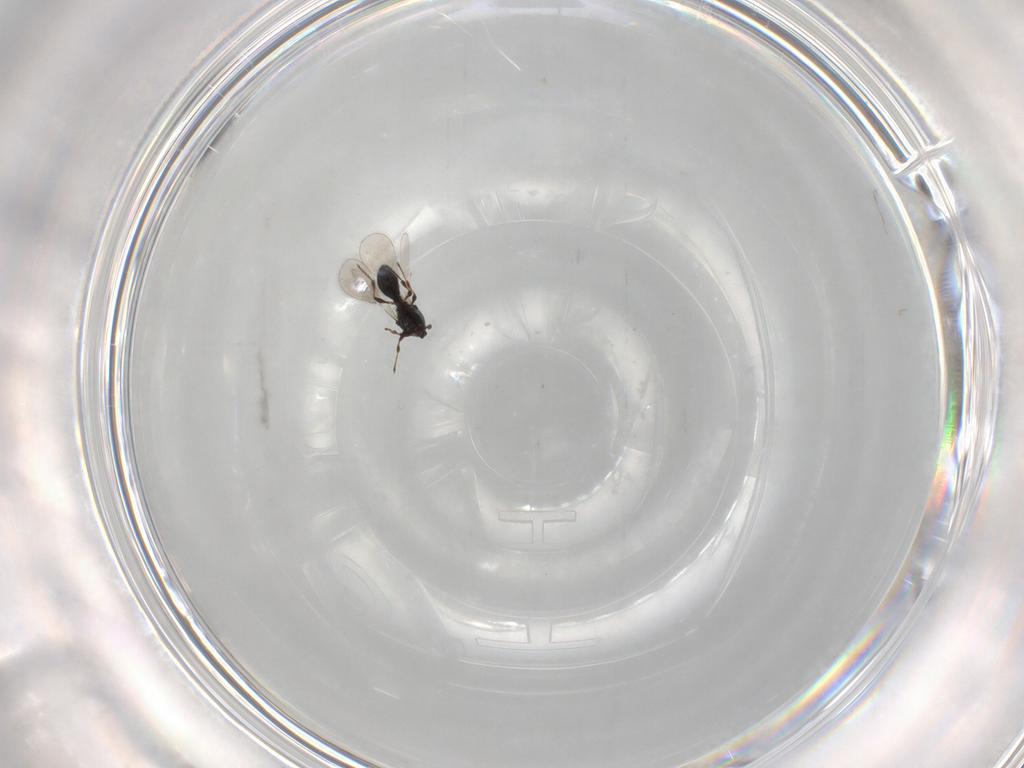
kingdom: Animalia
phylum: Arthropoda
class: Insecta
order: Hymenoptera
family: Platygastridae
